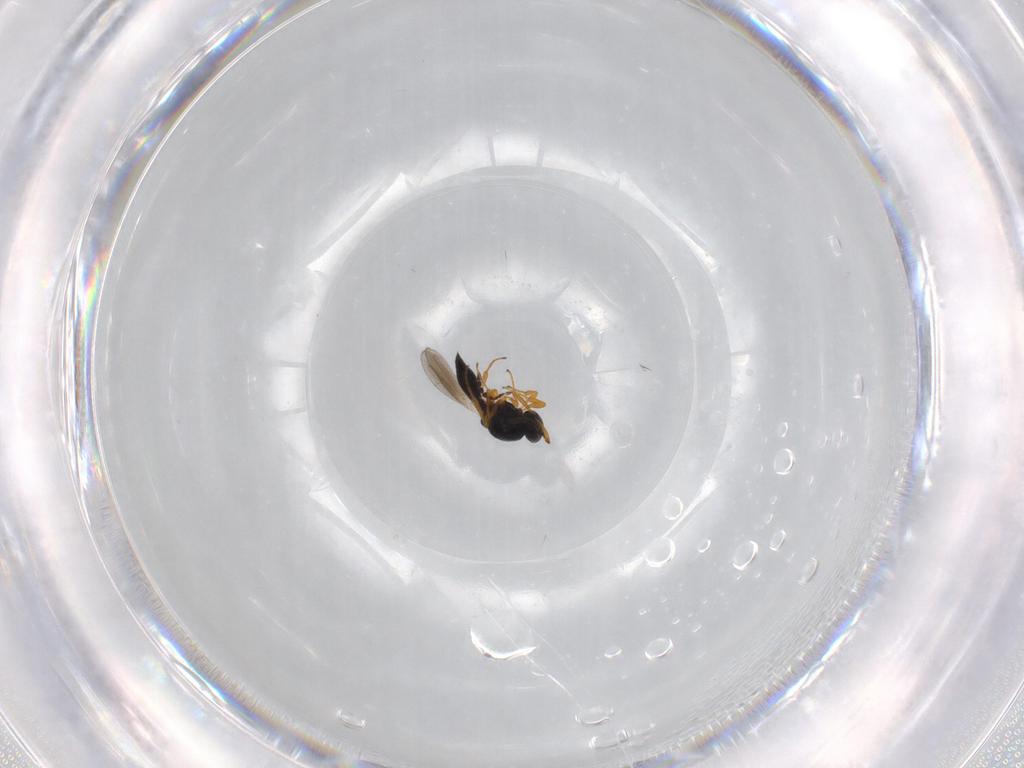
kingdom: Animalia
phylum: Arthropoda
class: Insecta
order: Hymenoptera
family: Platygastridae
